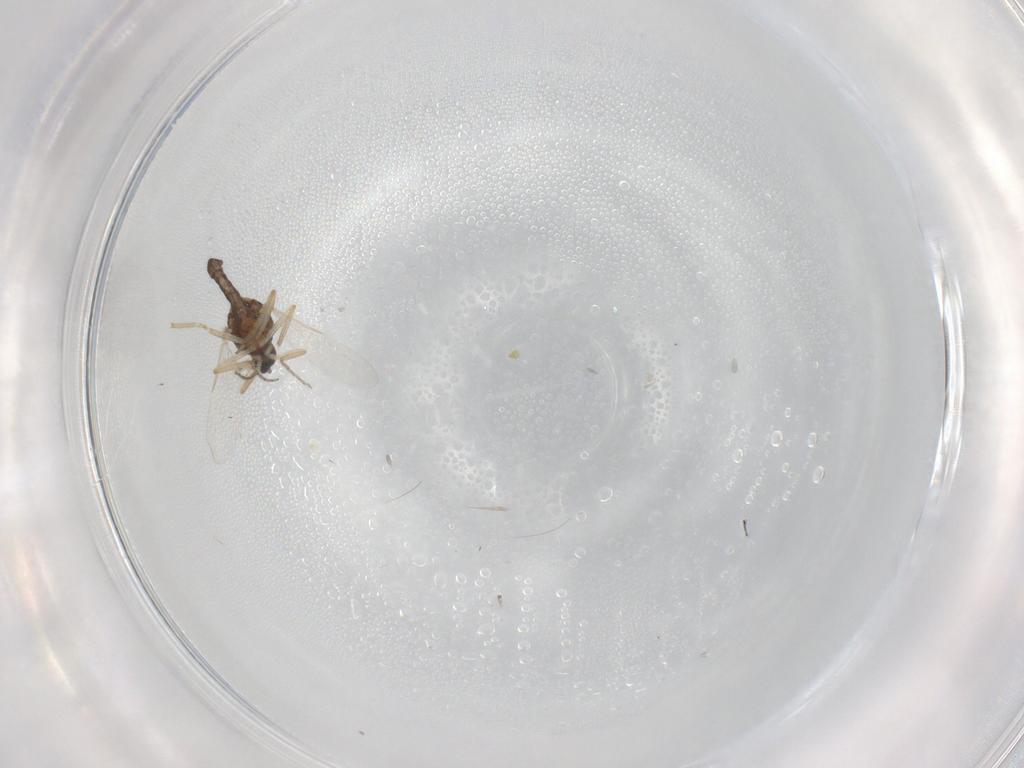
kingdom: Animalia
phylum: Arthropoda
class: Insecta
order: Diptera
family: Ceratopogonidae
